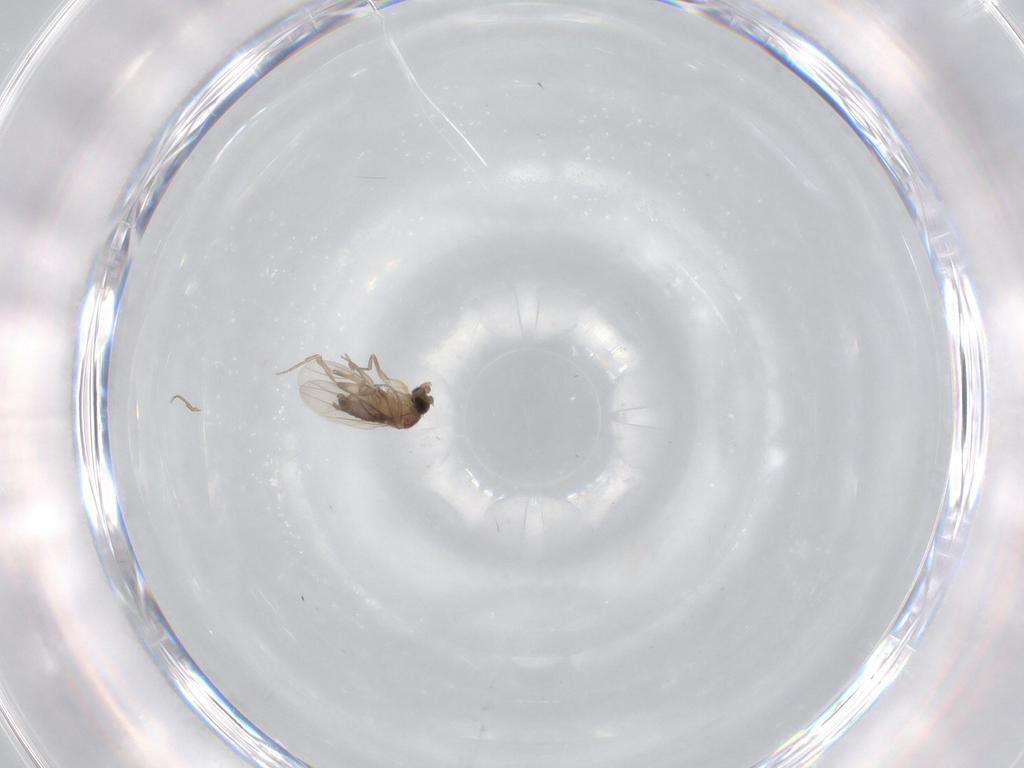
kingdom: Animalia
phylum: Arthropoda
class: Insecta
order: Diptera
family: Phoridae
